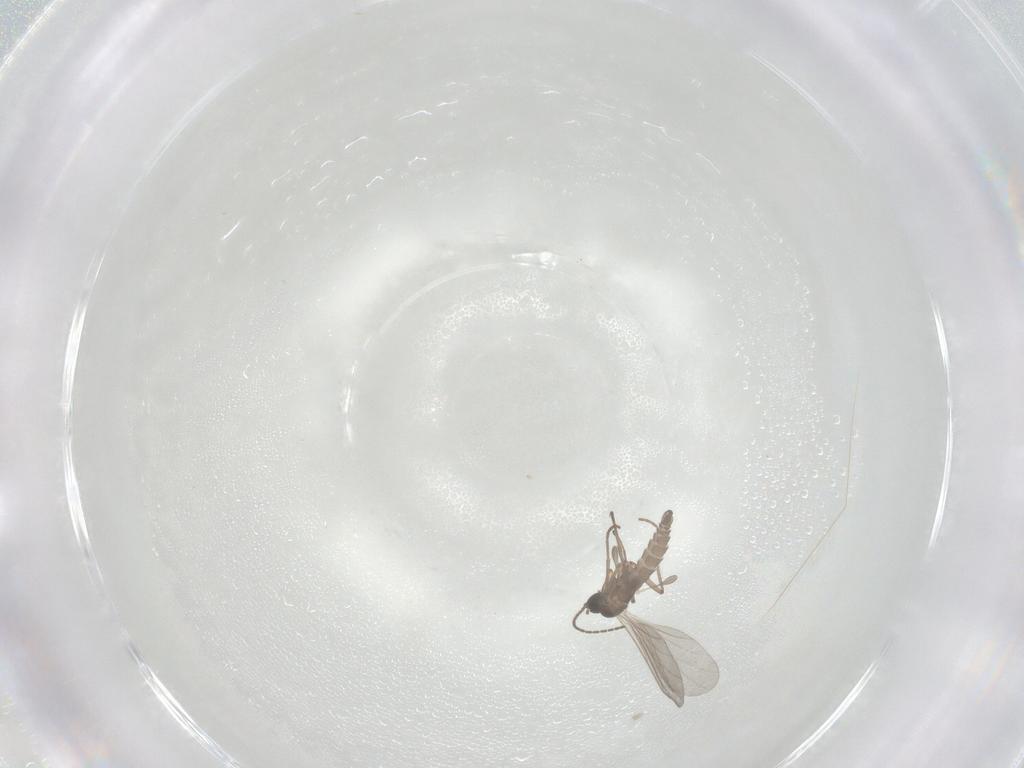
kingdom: Animalia
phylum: Arthropoda
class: Insecta
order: Diptera
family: Sciaridae
